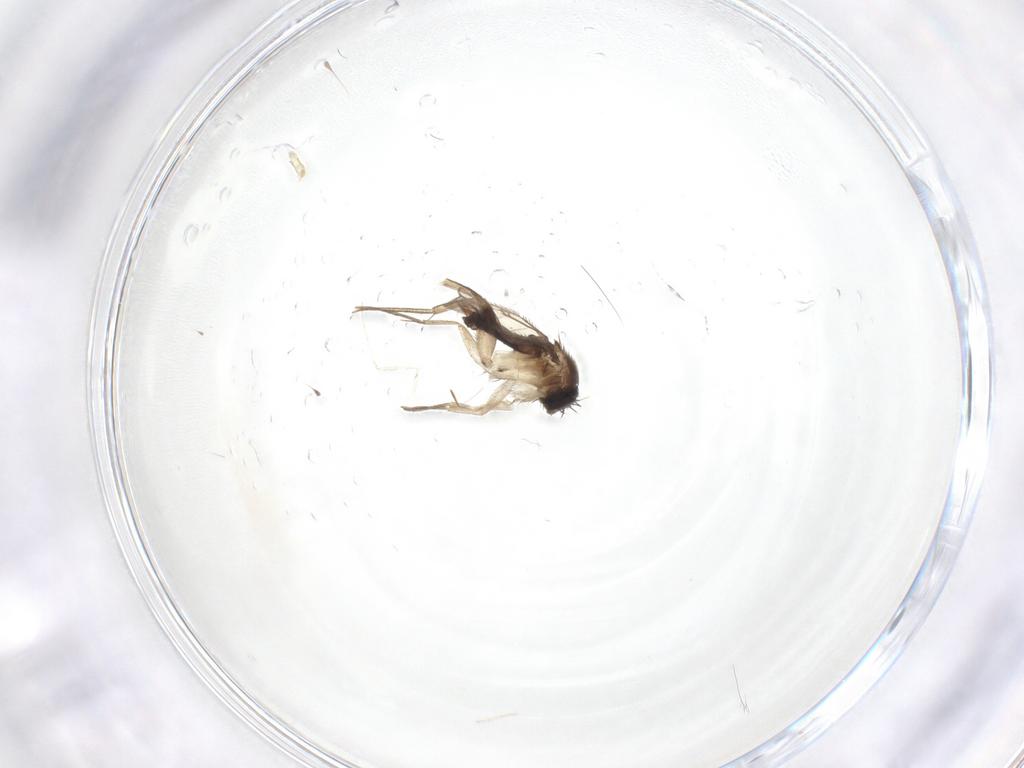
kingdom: Animalia
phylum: Arthropoda
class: Insecta
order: Diptera
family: Phoridae
